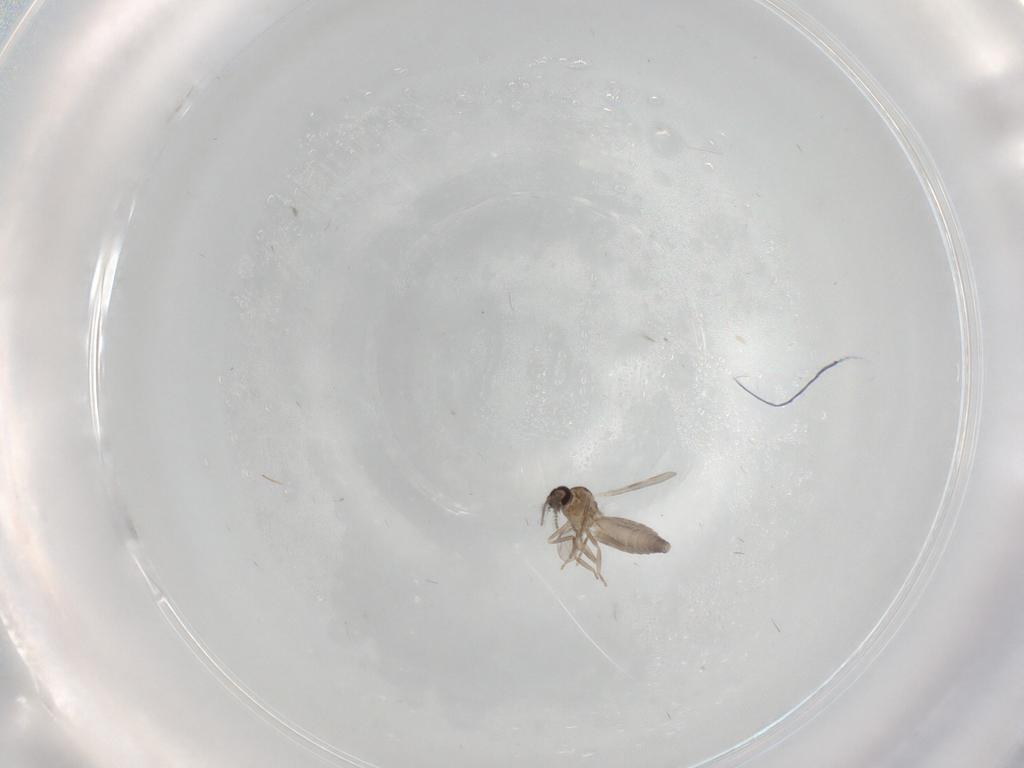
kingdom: Animalia
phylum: Arthropoda
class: Insecta
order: Diptera
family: Ceratopogonidae
